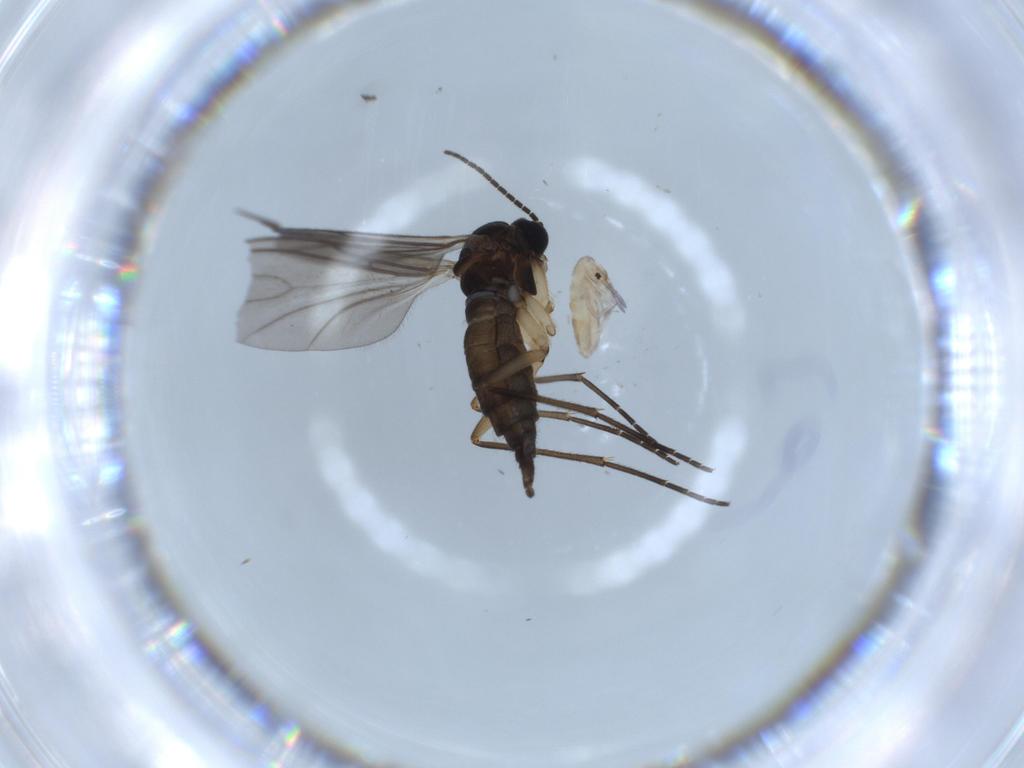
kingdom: Animalia
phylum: Arthropoda
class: Insecta
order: Diptera
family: Sciaridae
